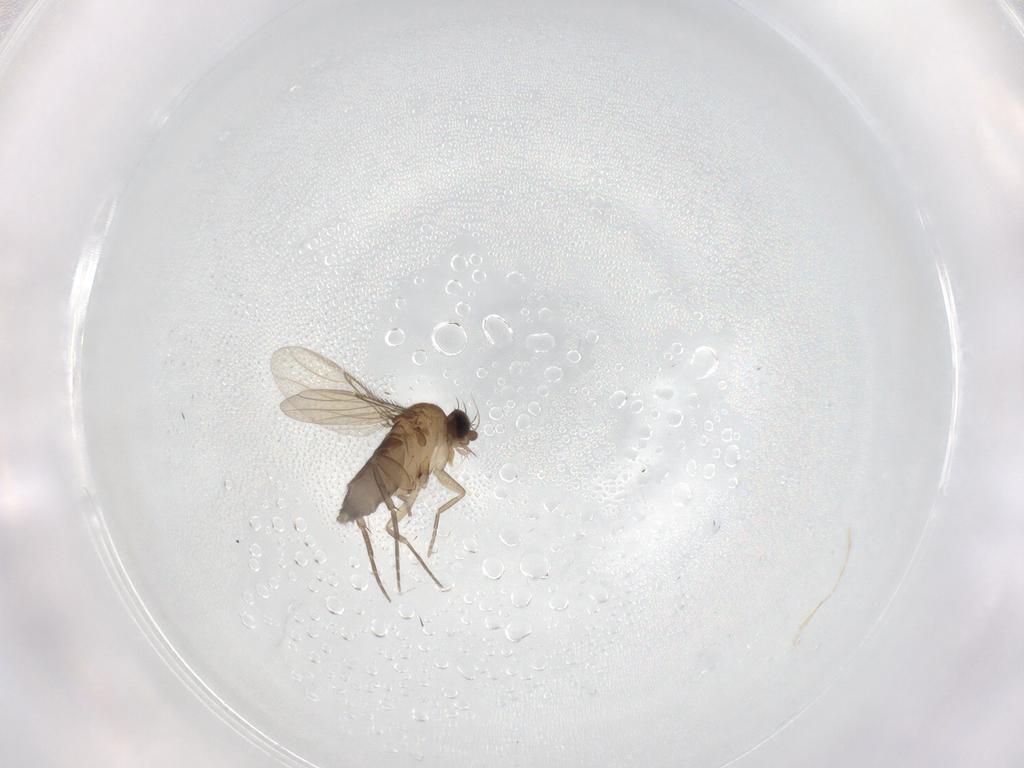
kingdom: Animalia
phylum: Arthropoda
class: Insecta
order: Diptera
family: Phoridae
